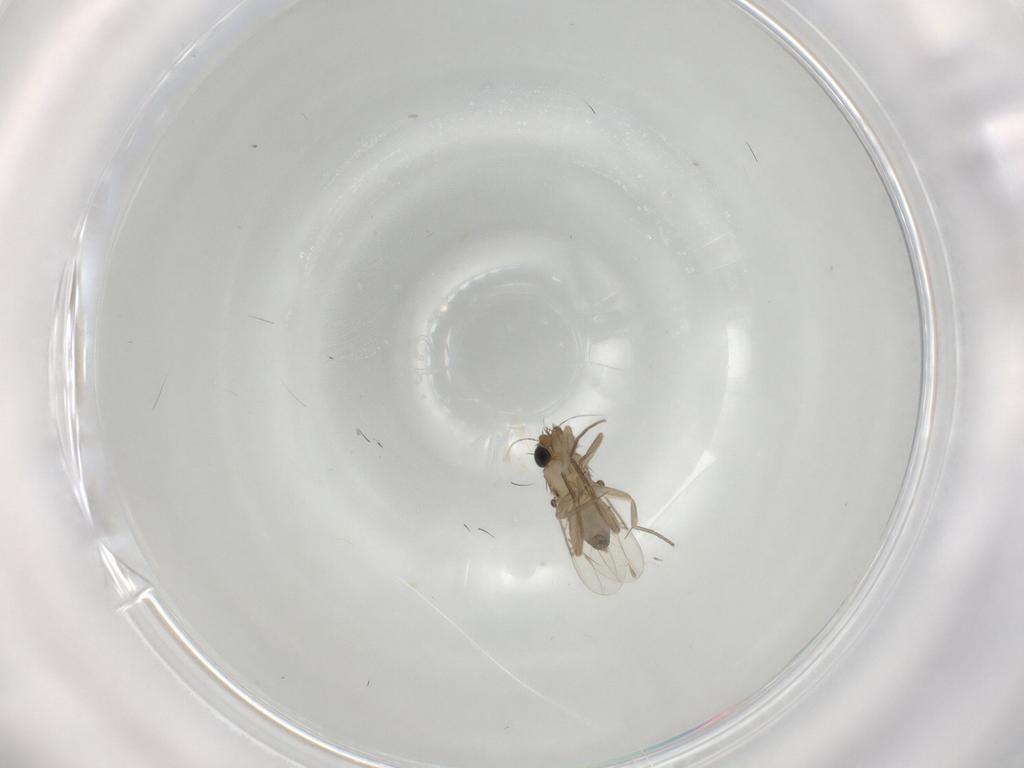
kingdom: Animalia
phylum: Arthropoda
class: Insecta
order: Diptera
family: Phoridae
